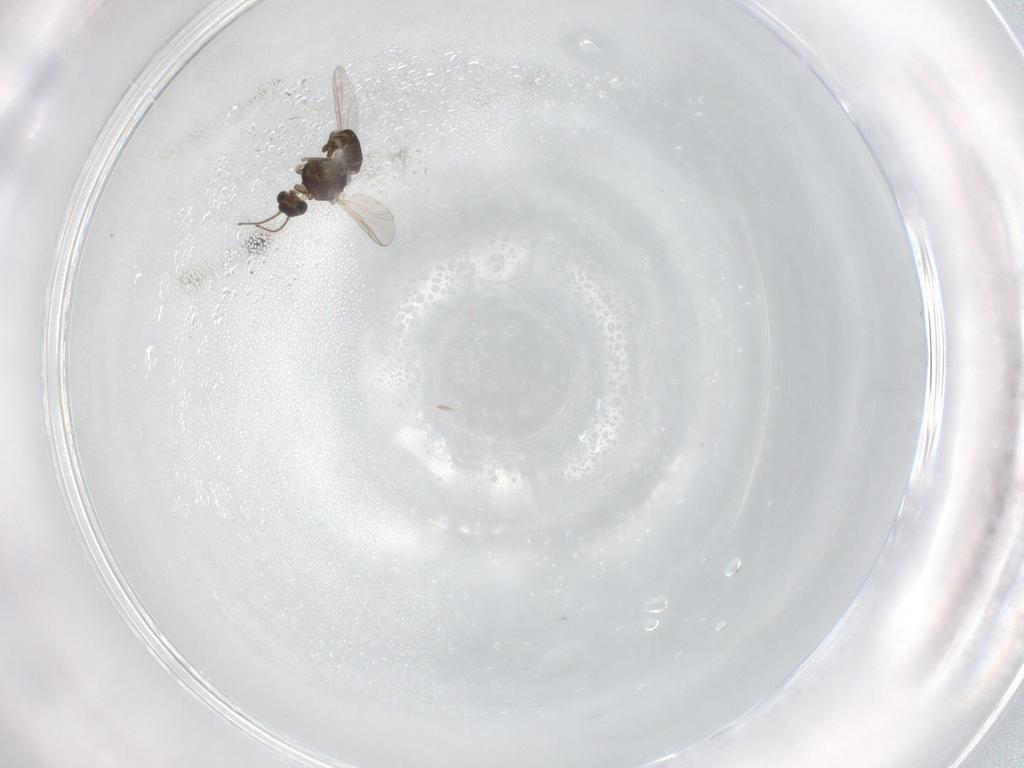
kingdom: Animalia
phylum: Arthropoda
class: Insecta
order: Diptera
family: Chironomidae
